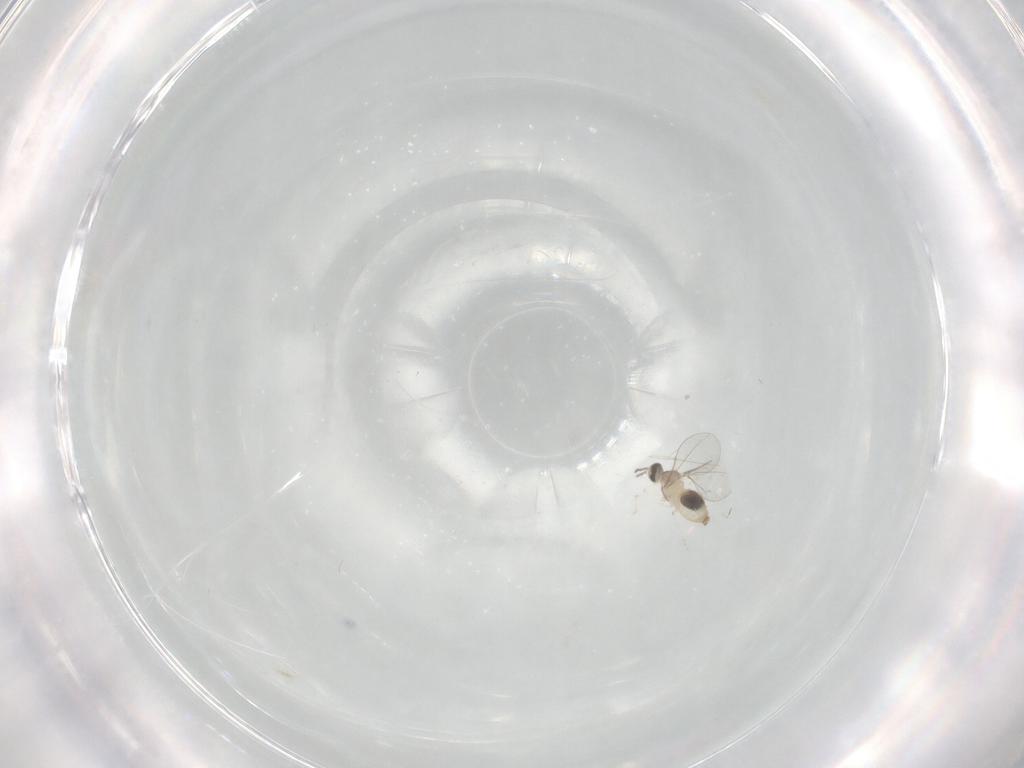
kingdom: Animalia
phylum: Arthropoda
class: Insecta
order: Diptera
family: Cecidomyiidae
